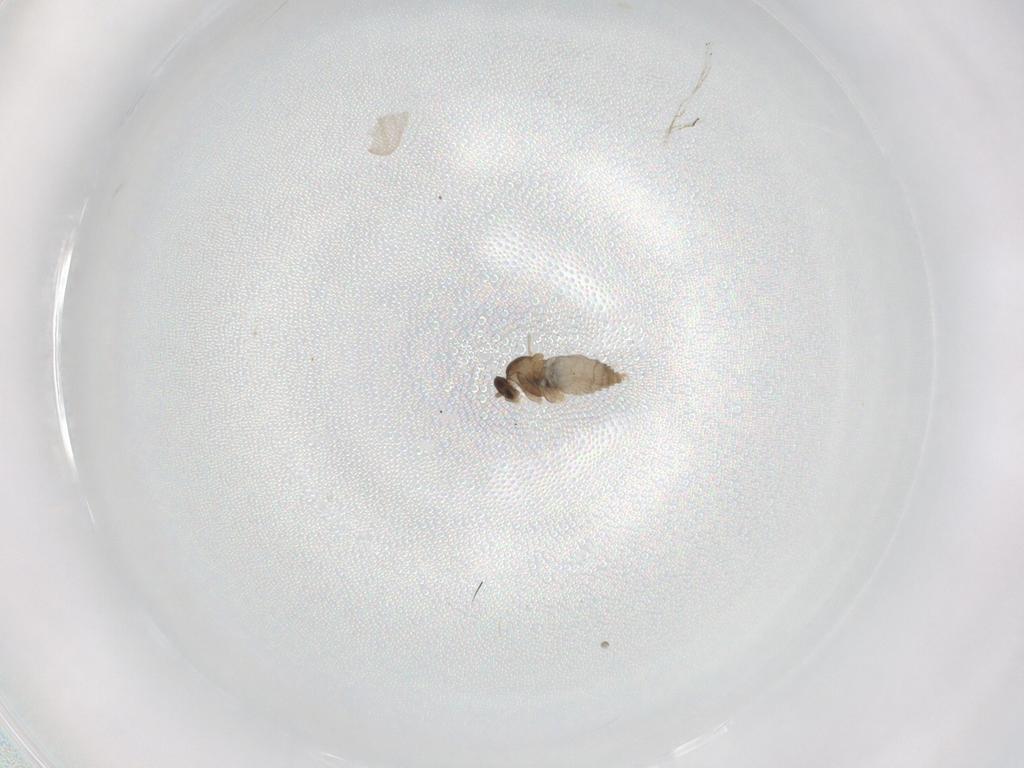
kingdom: Animalia
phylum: Arthropoda
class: Insecta
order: Diptera
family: Cecidomyiidae
